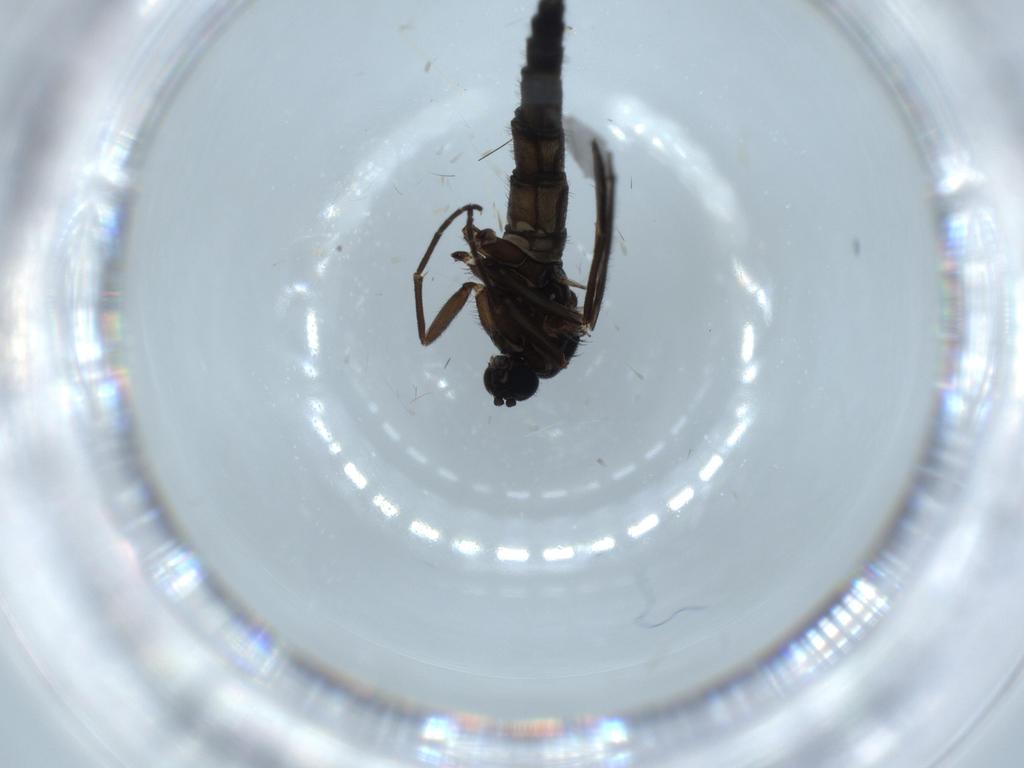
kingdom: Animalia
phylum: Arthropoda
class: Insecta
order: Diptera
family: Sciaridae
